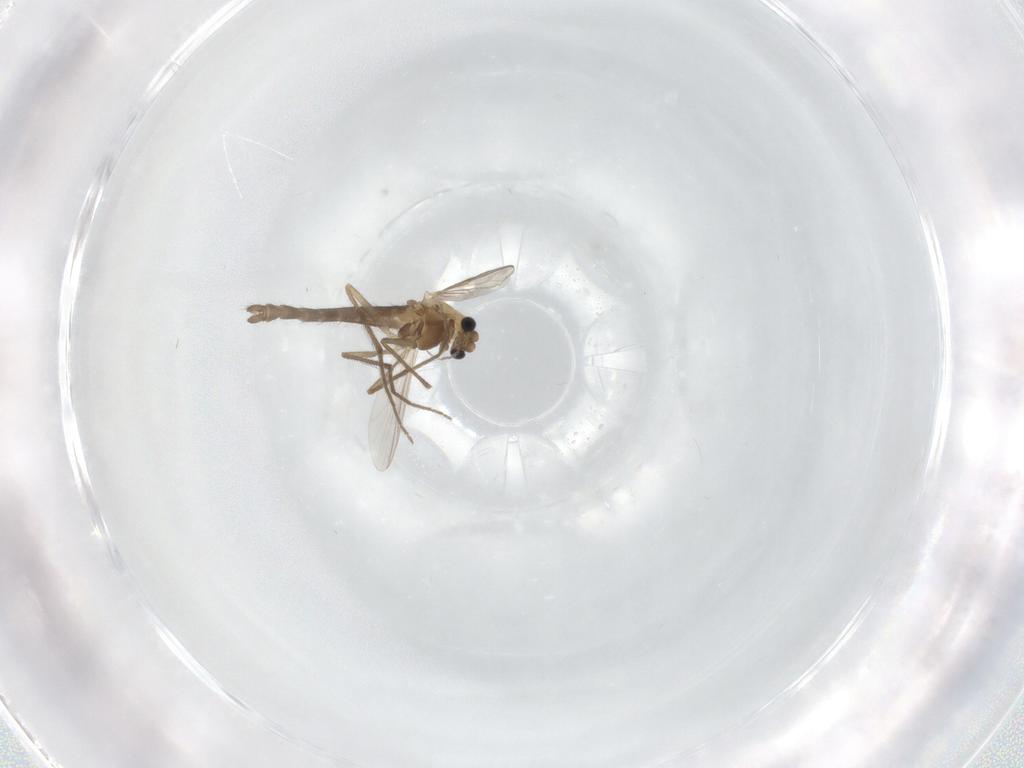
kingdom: Animalia
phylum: Arthropoda
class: Insecta
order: Diptera
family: Chironomidae
